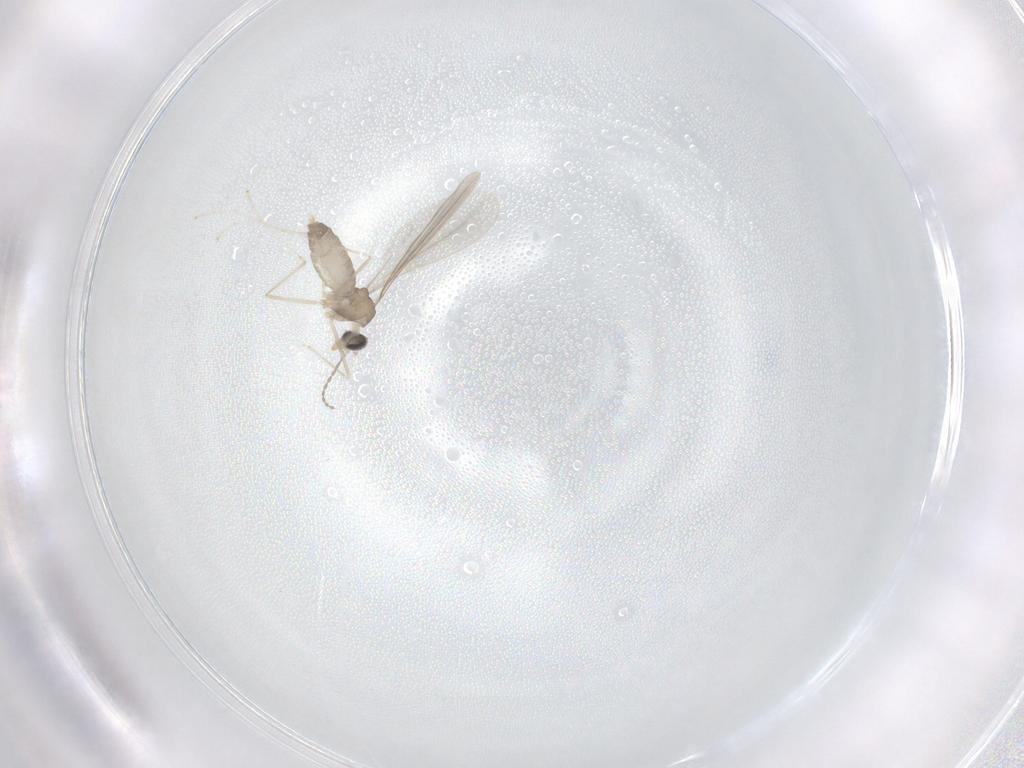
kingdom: Animalia
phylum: Arthropoda
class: Insecta
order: Diptera
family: Cecidomyiidae
